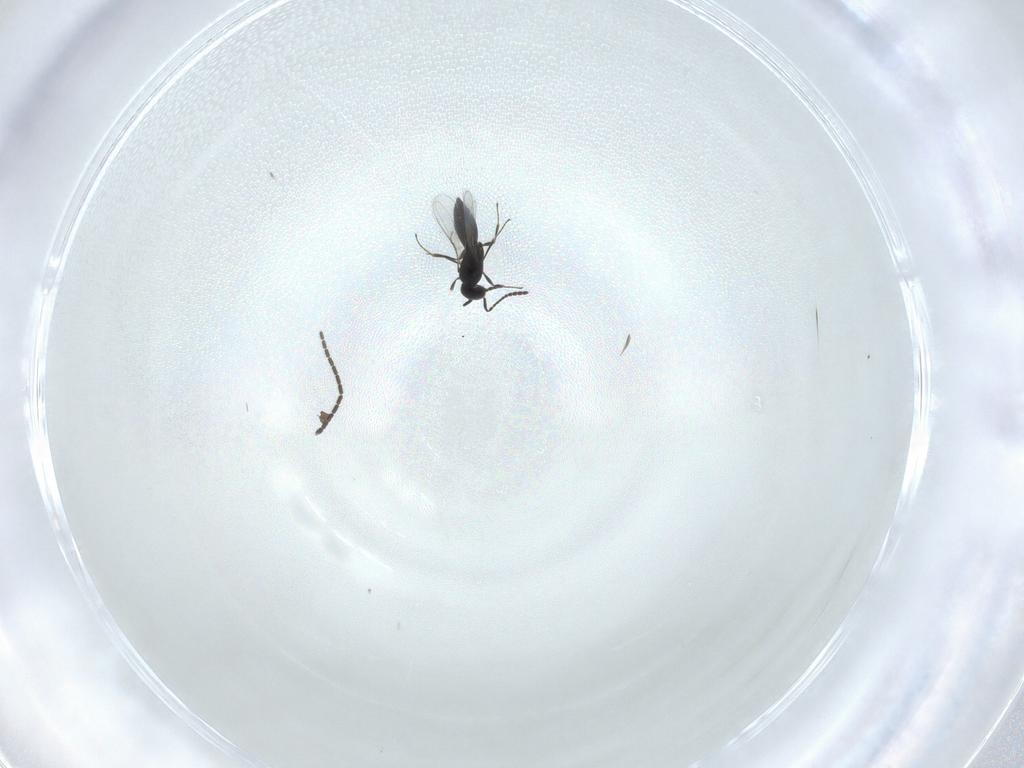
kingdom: Animalia
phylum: Arthropoda
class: Insecta
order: Hymenoptera
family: Scelionidae
